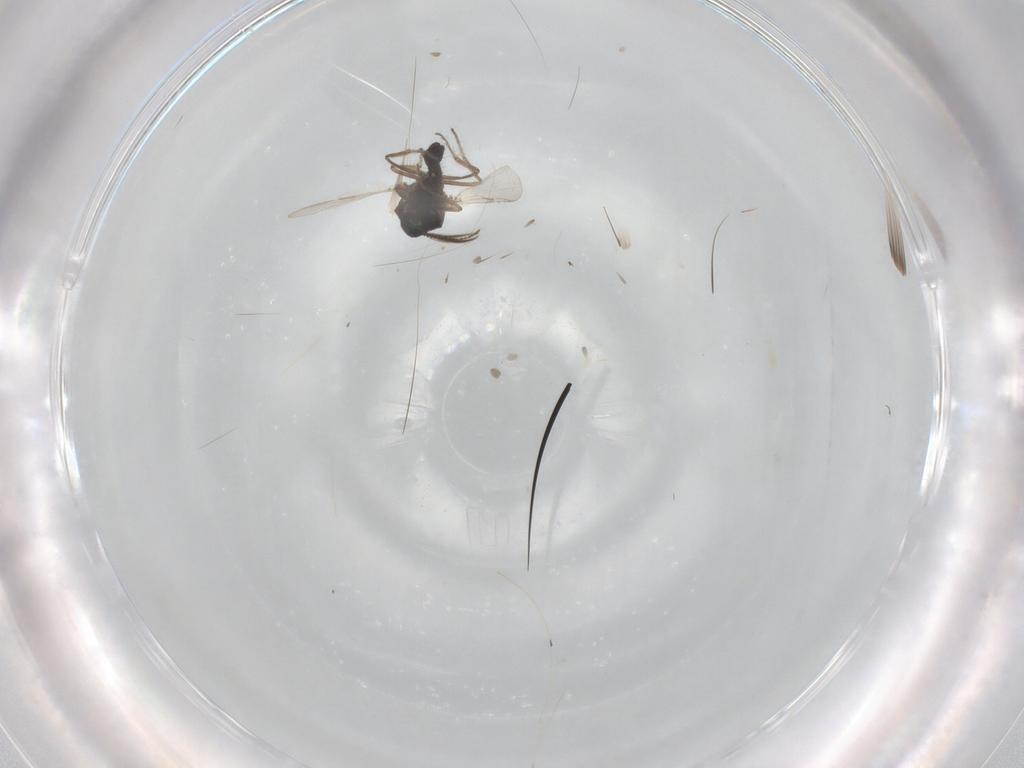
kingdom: Animalia
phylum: Arthropoda
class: Insecta
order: Diptera
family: Ceratopogonidae
